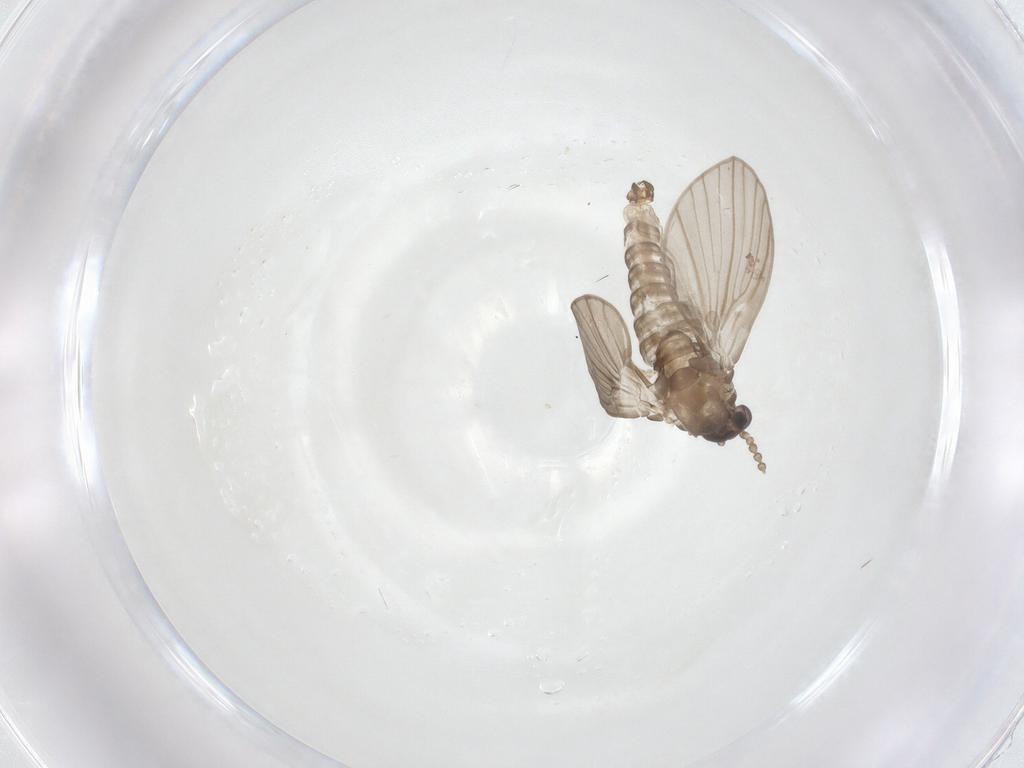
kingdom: Animalia
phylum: Arthropoda
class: Insecta
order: Diptera
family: Psychodidae
